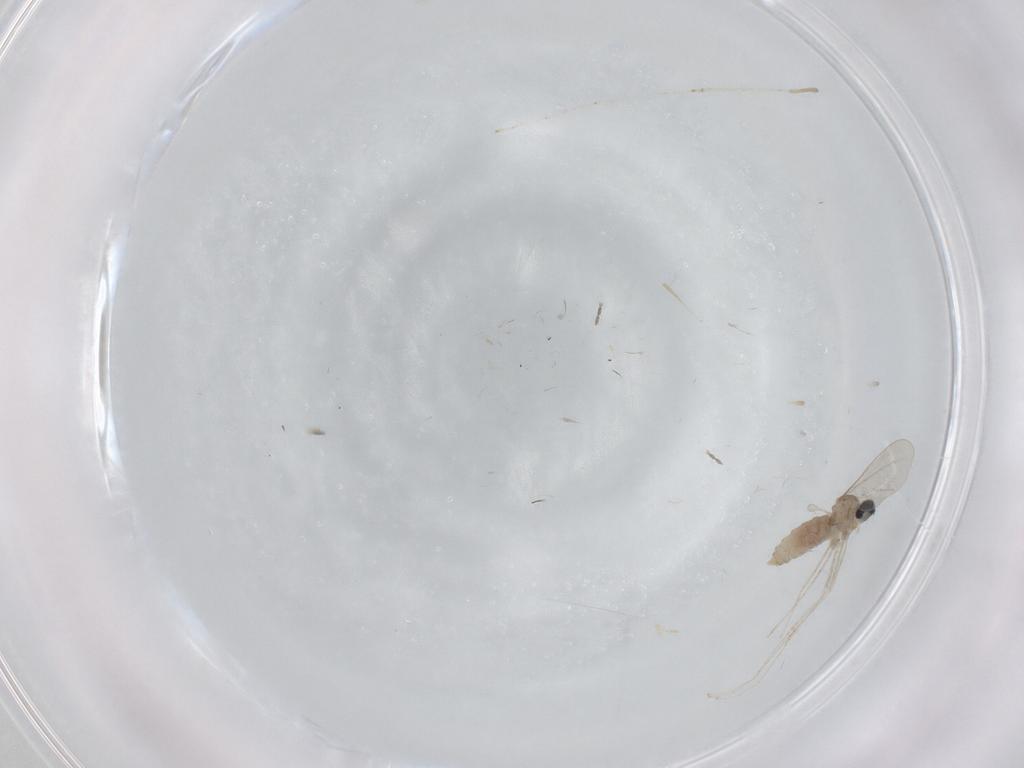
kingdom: Animalia
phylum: Arthropoda
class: Insecta
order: Diptera
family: Cecidomyiidae
